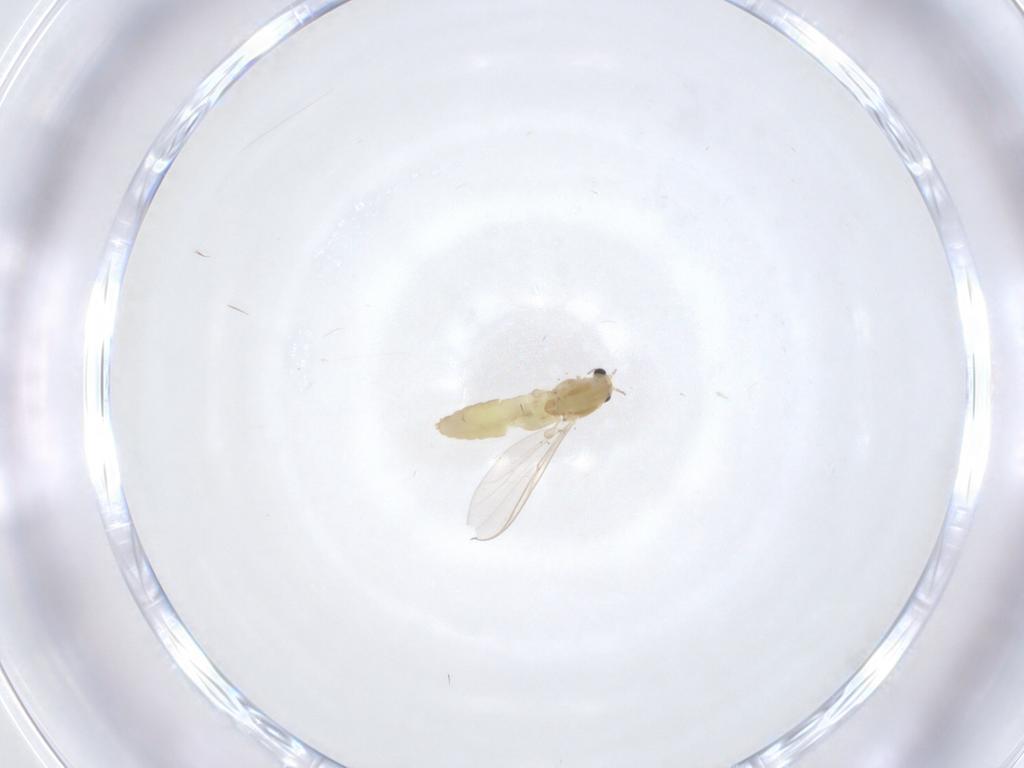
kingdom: Animalia
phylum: Arthropoda
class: Insecta
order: Diptera
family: Chironomidae
